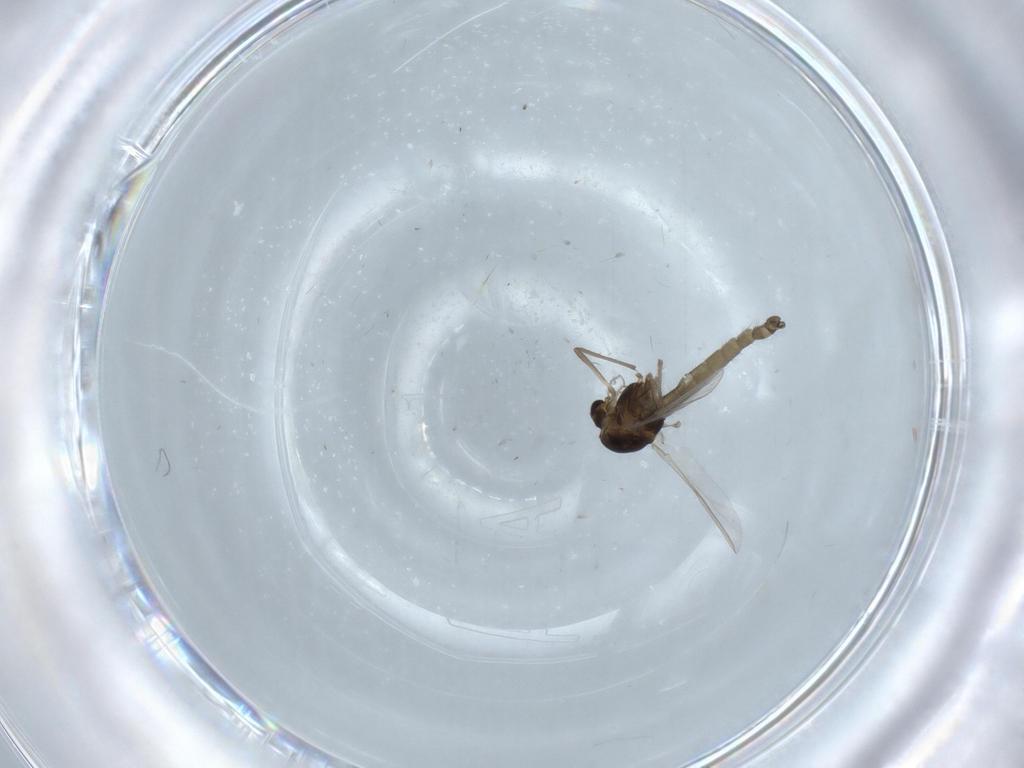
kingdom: Animalia
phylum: Arthropoda
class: Insecta
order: Diptera
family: Chironomidae
